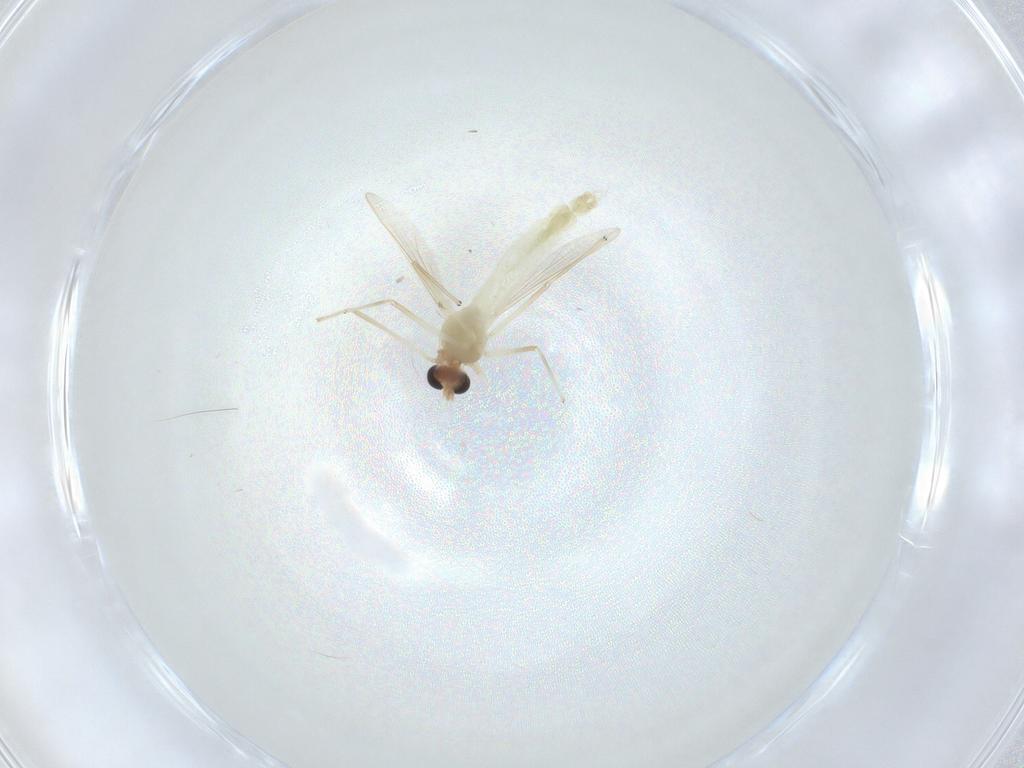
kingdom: Animalia
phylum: Arthropoda
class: Insecta
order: Diptera
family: Chironomidae
